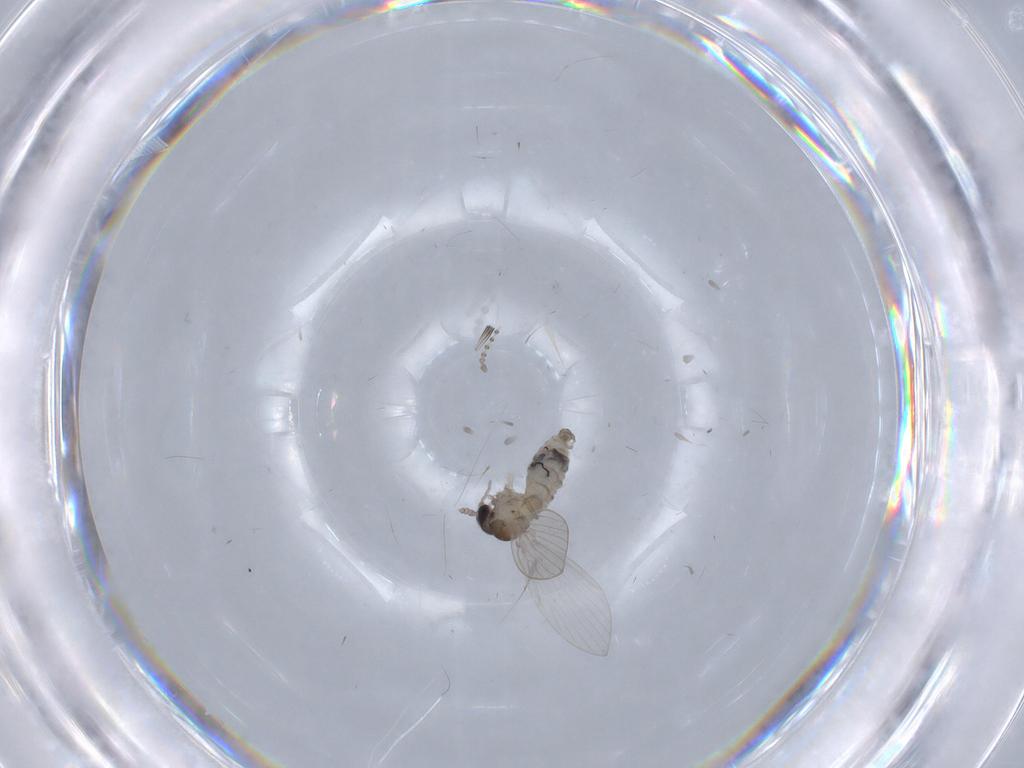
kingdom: Animalia
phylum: Arthropoda
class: Insecta
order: Diptera
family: Psychodidae
